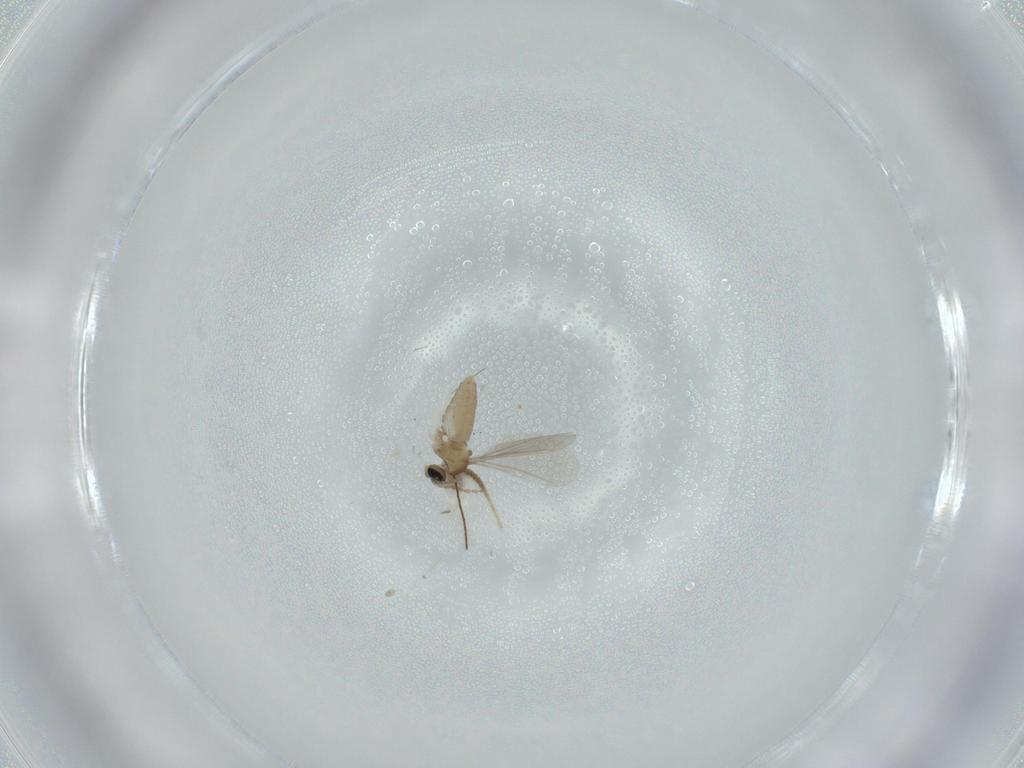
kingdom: Animalia
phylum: Arthropoda
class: Insecta
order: Diptera
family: Cecidomyiidae
